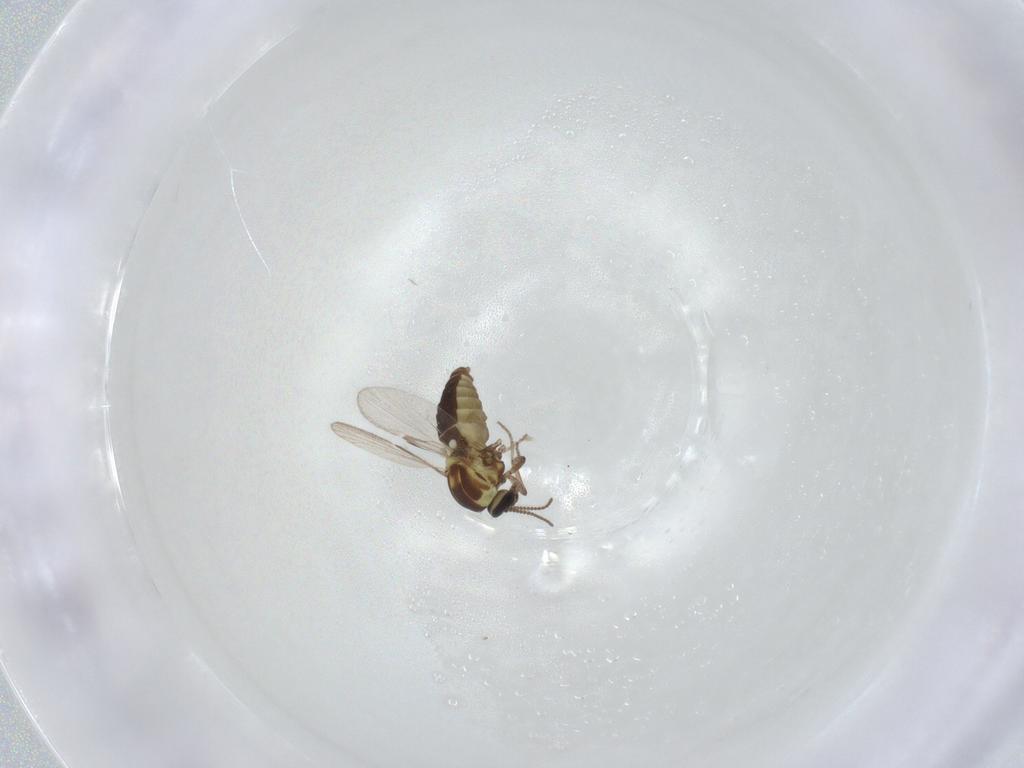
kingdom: Animalia
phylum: Arthropoda
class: Insecta
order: Diptera
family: Ceratopogonidae
